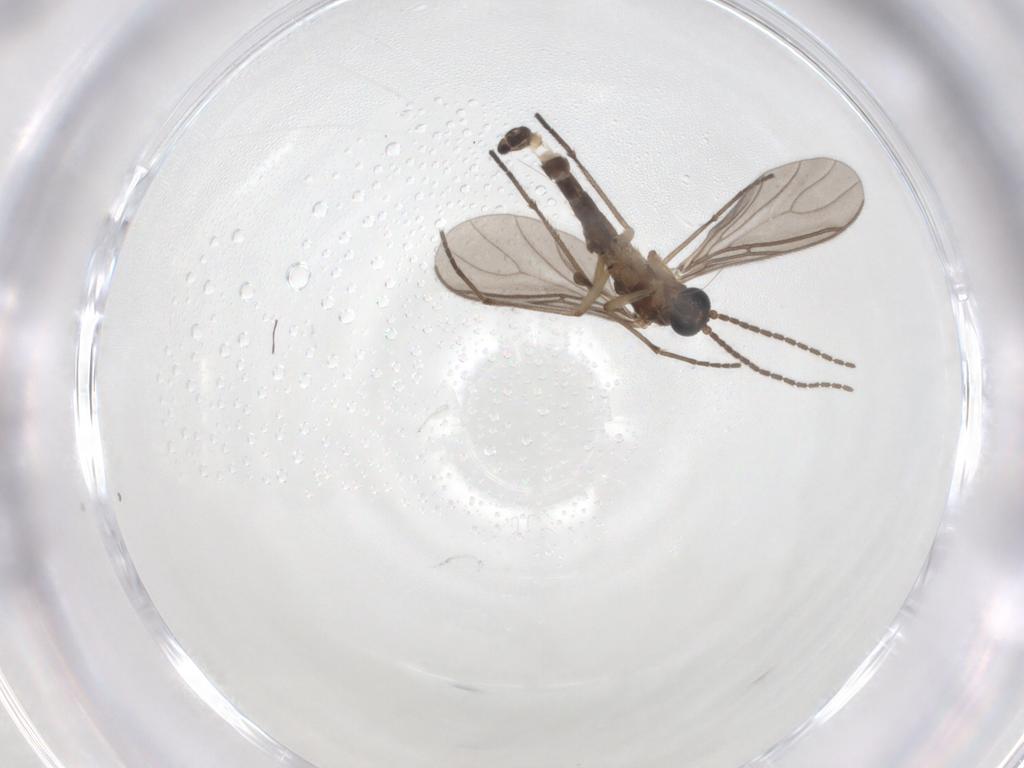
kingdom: Animalia
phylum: Arthropoda
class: Insecta
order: Diptera
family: Sciaridae
